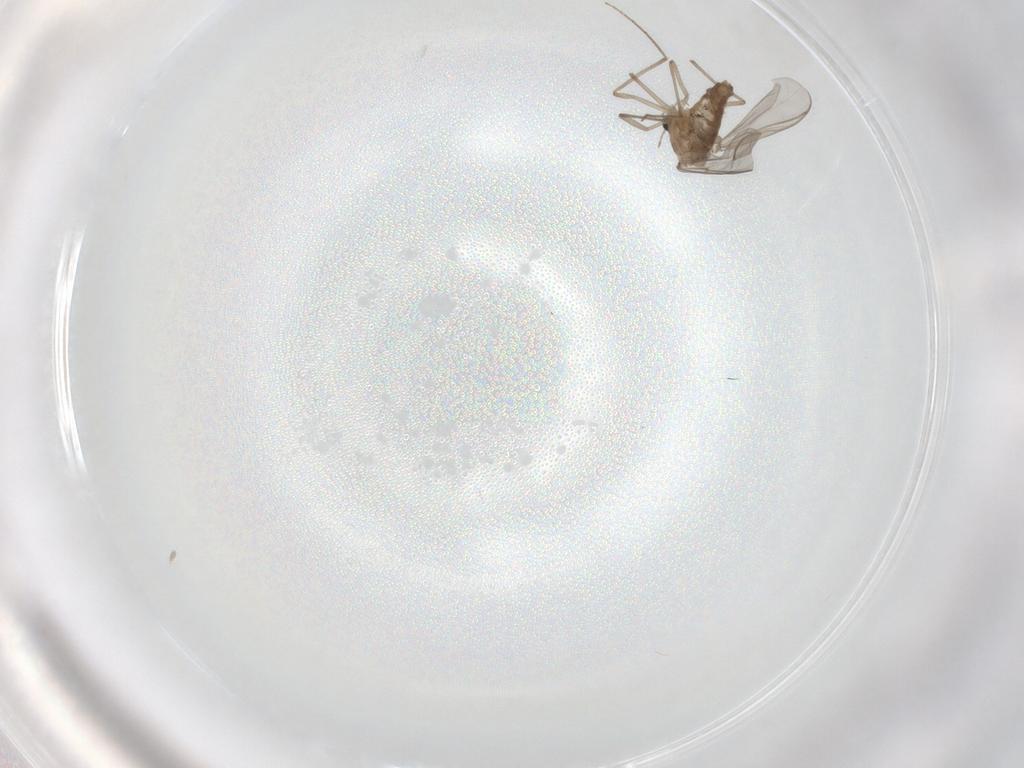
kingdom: Animalia
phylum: Arthropoda
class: Insecta
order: Diptera
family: Chironomidae
